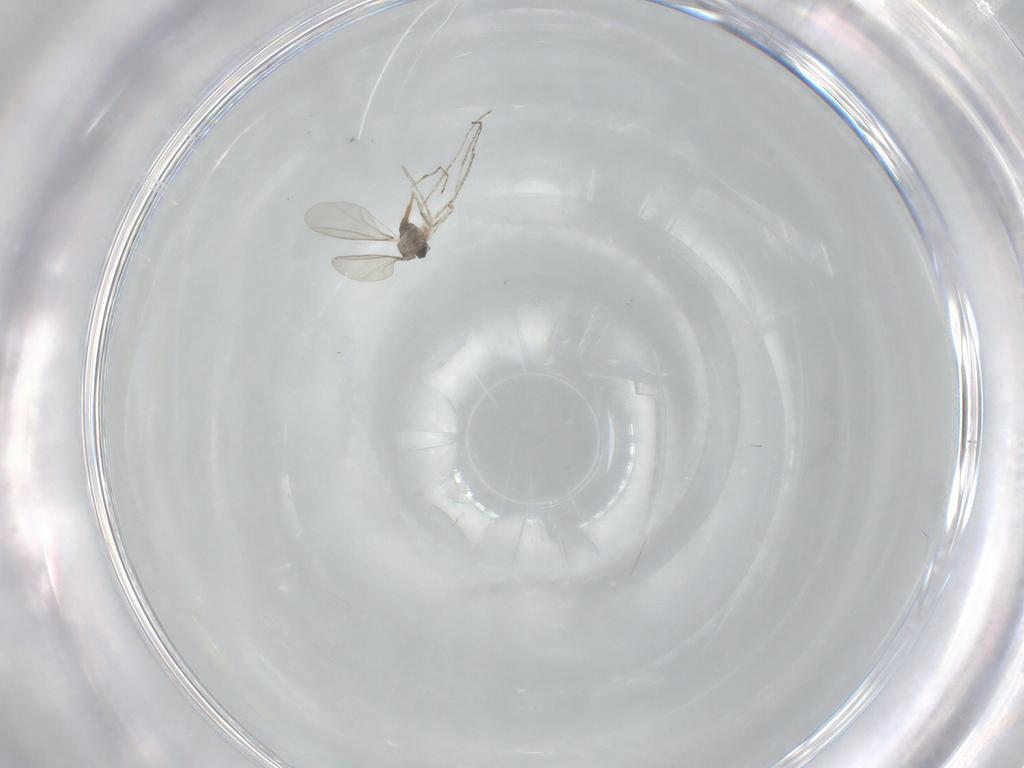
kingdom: Animalia
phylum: Arthropoda
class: Insecta
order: Diptera
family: Cecidomyiidae
